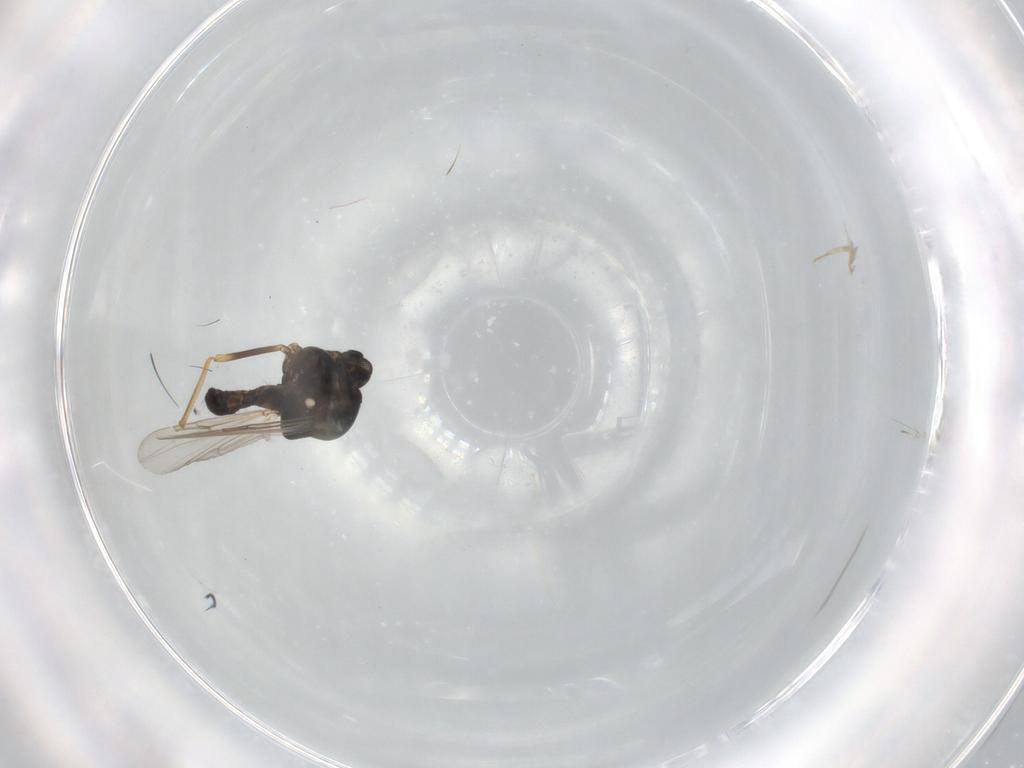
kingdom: Animalia
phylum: Arthropoda
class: Insecta
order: Diptera
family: Ceratopogonidae
